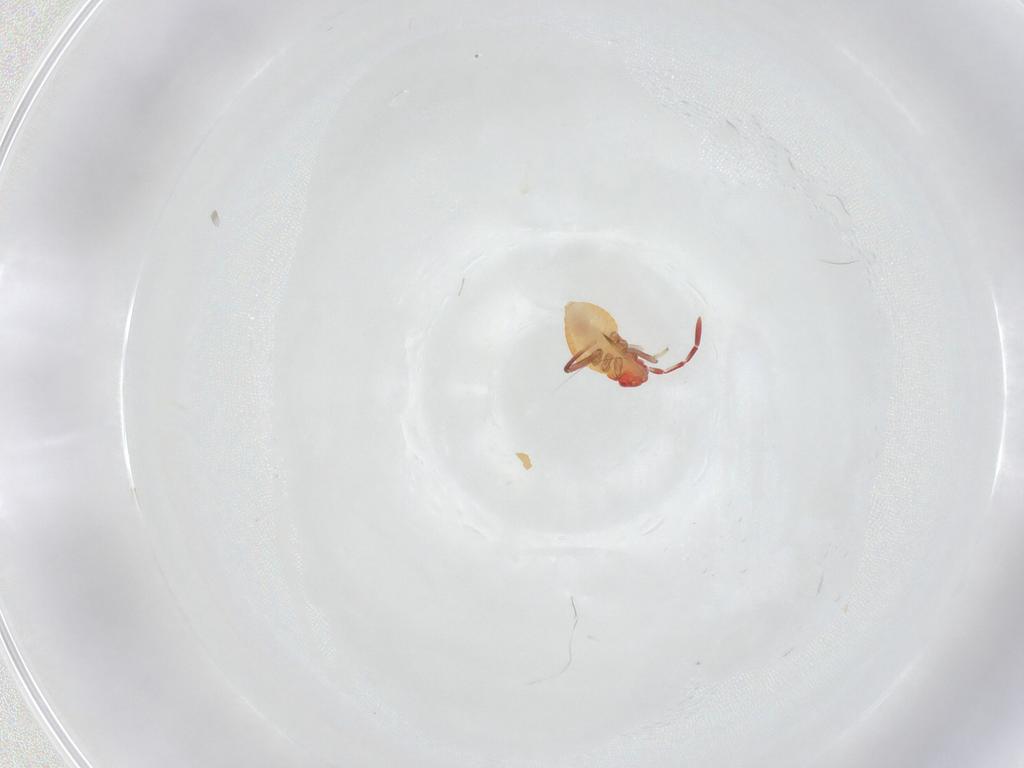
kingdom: Animalia
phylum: Arthropoda
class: Insecta
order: Hemiptera
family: Miridae
